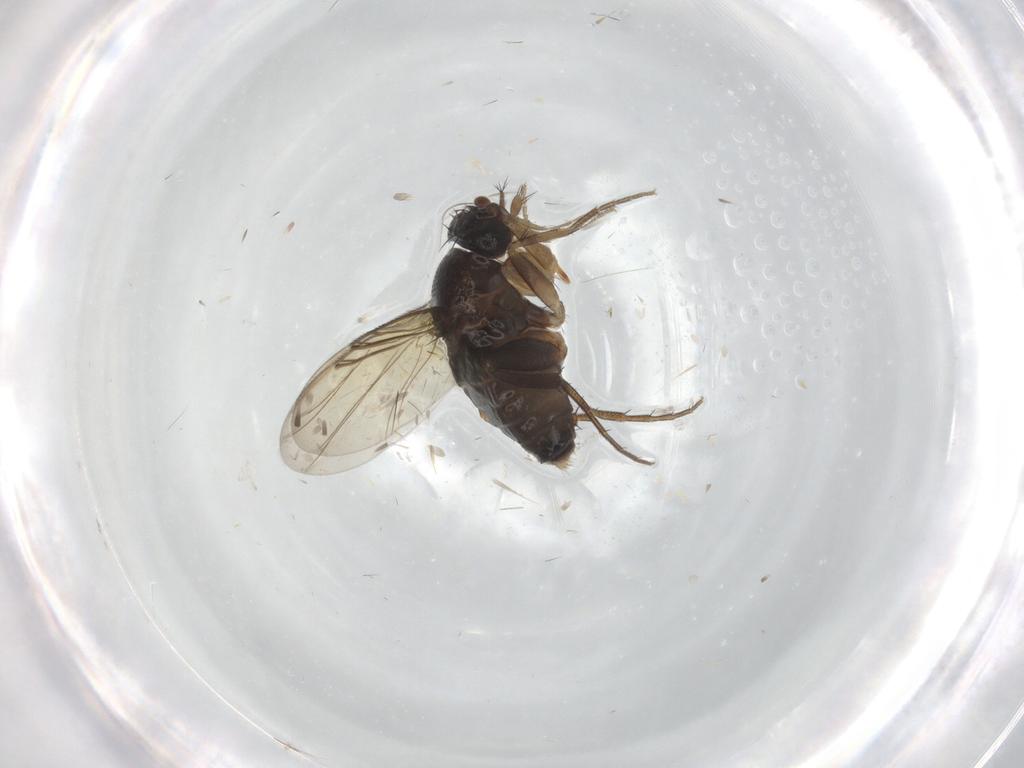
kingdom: Animalia
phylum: Arthropoda
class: Insecta
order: Diptera
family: Phoridae
